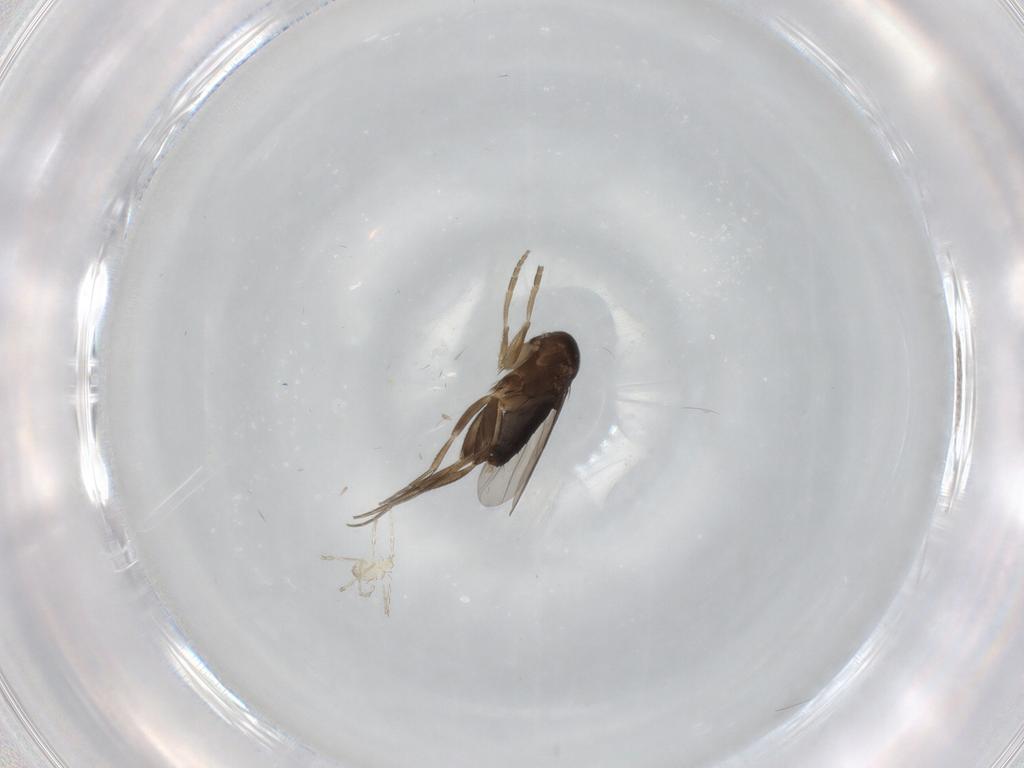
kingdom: Animalia
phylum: Arthropoda
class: Insecta
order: Diptera
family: Phoridae
